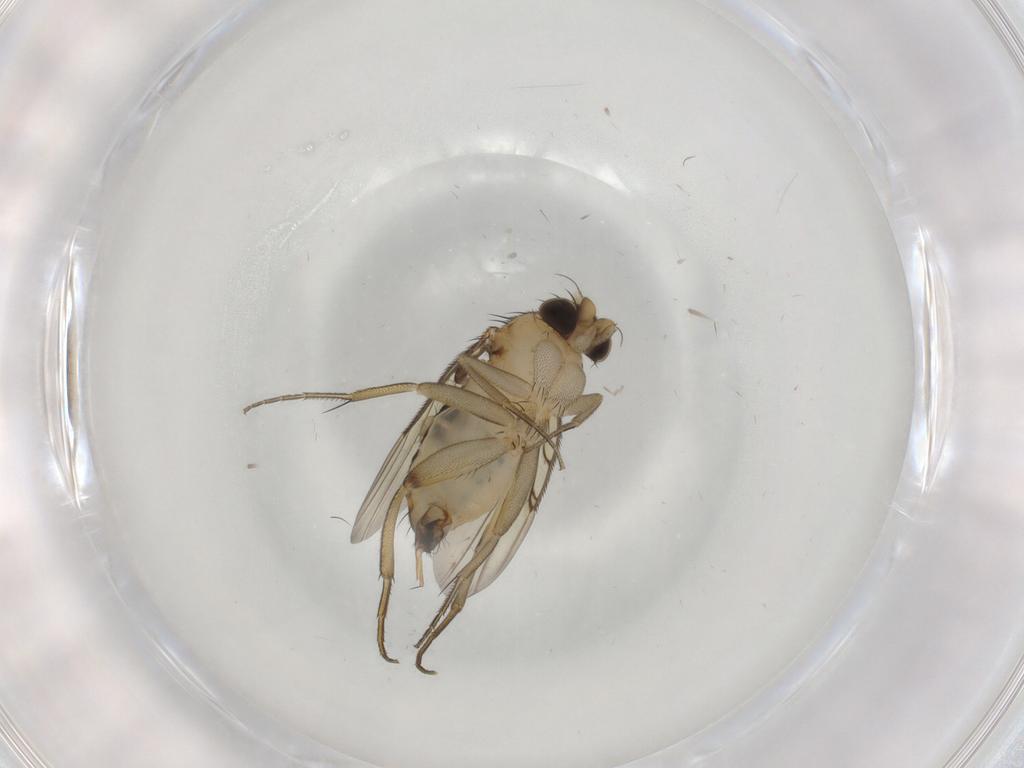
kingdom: Animalia
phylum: Arthropoda
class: Insecta
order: Diptera
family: Phoridae
